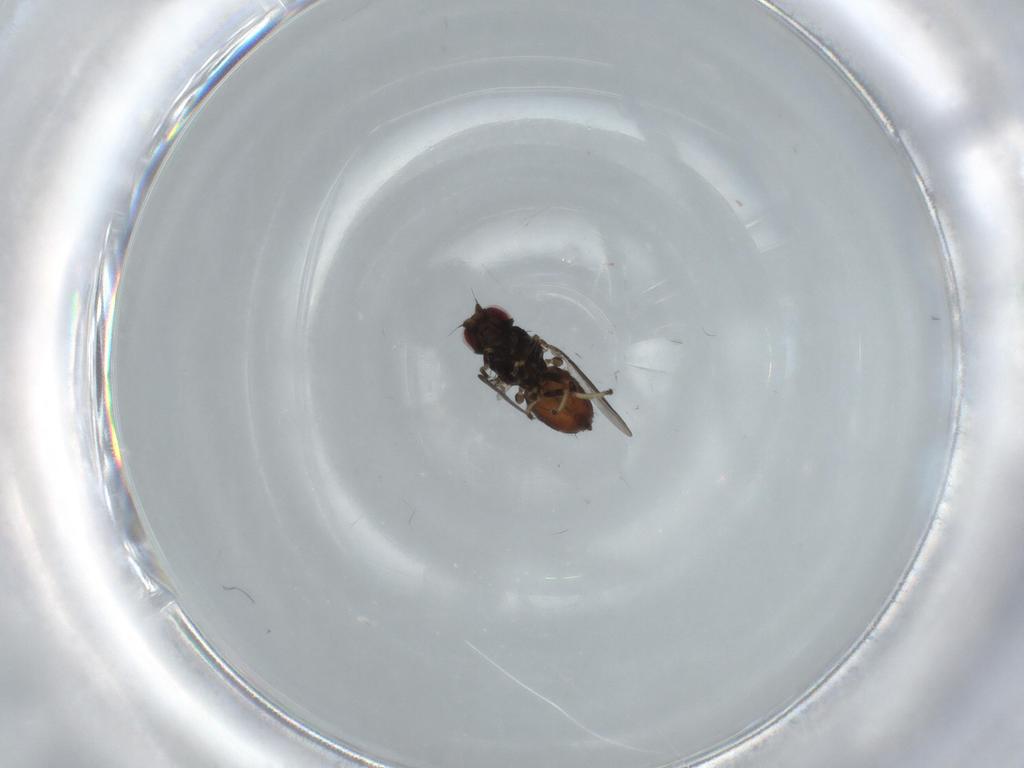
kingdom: Animalia
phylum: Arthropoda
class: Insecta
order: Diptera
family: Chloropidae
